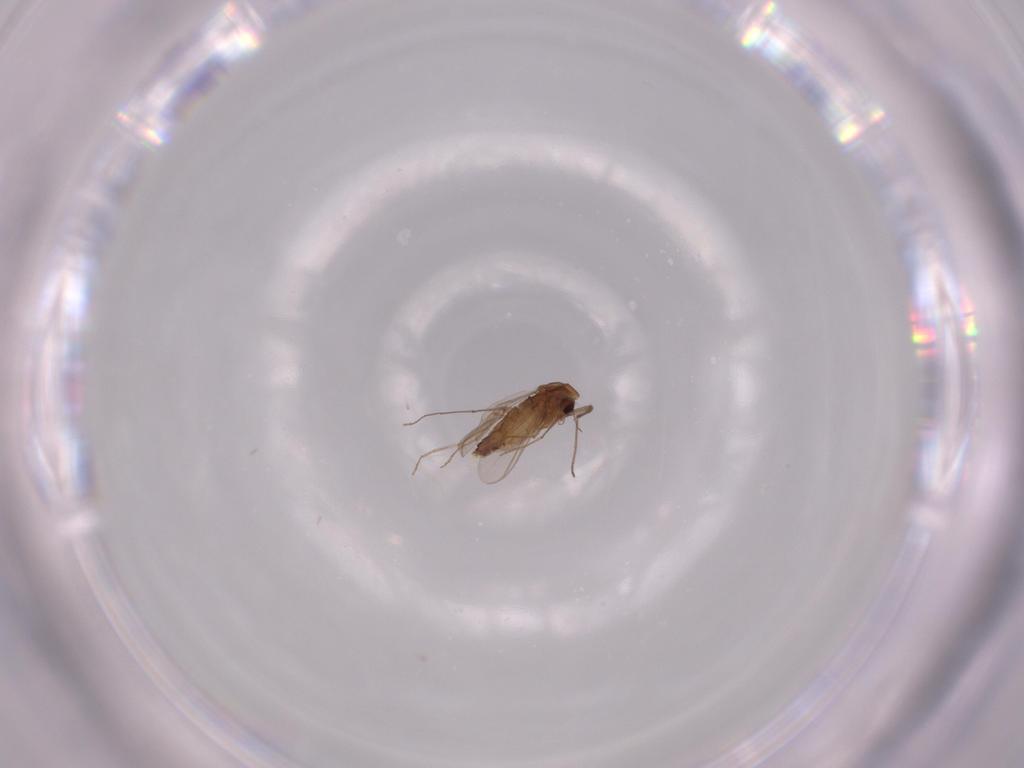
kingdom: Animalia
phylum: Arthropoda
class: Insecta
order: Diptera
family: Chironomidae
